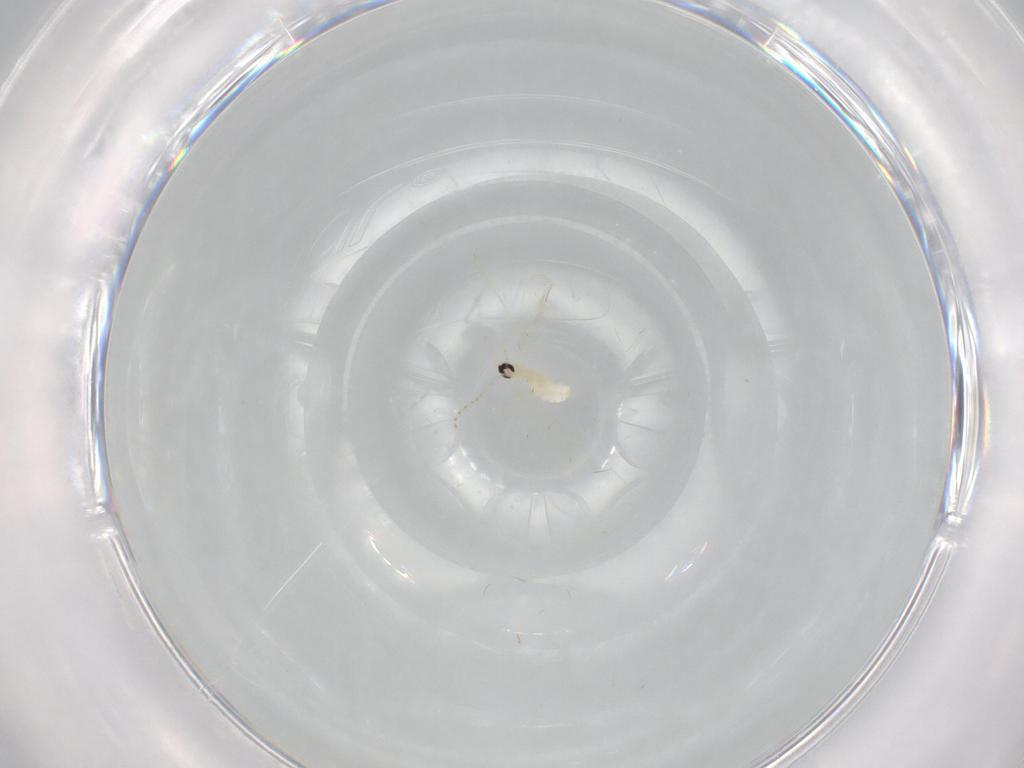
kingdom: Animalia
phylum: Arthropoda
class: Insecta
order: Diptera
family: Cecidomyiidae
